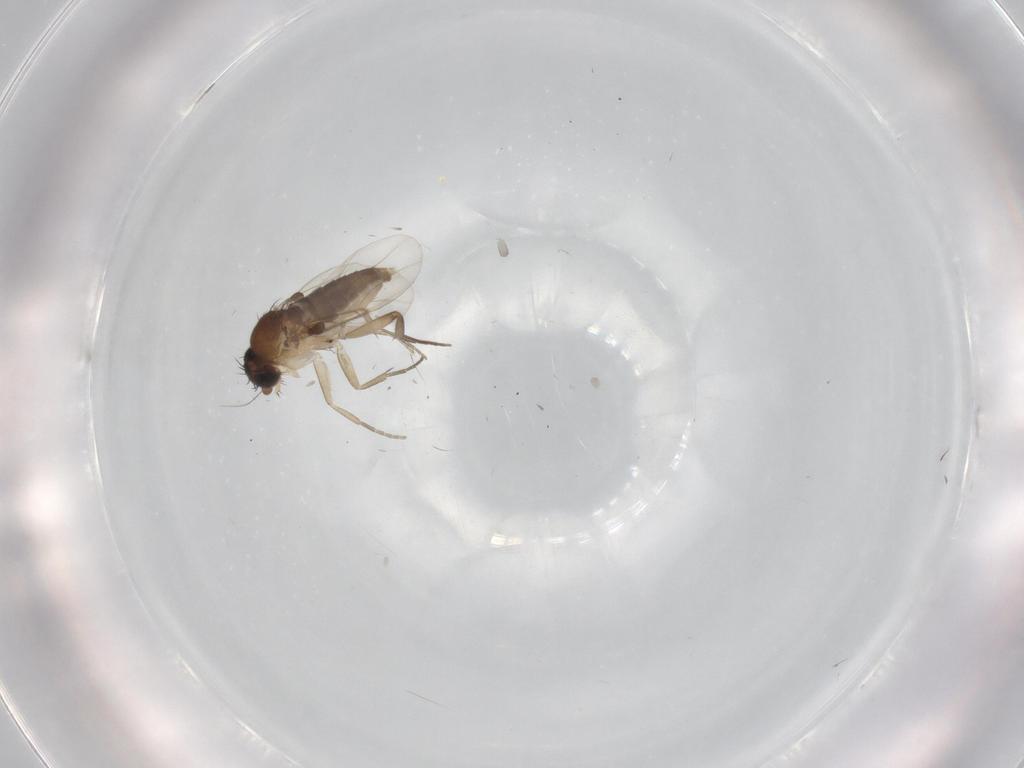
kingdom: Animalia
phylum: Arthropoda
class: Insecta
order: Diptera
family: Phoridae
